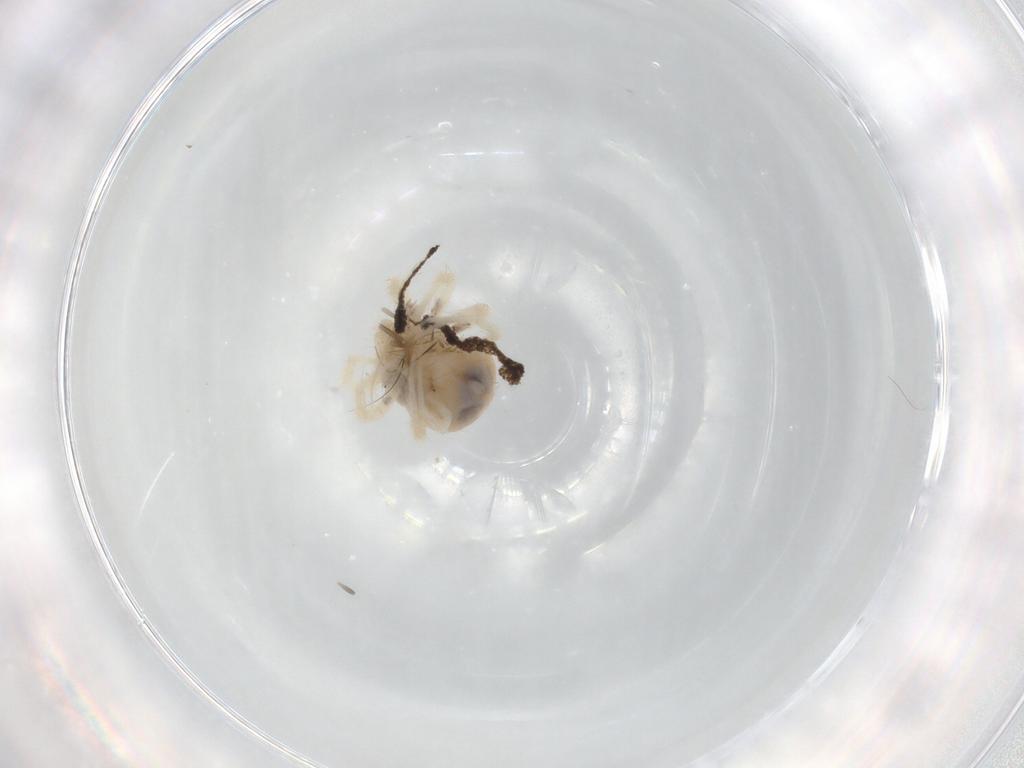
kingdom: Animalia
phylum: Arthropoda
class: Arachnida
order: Trombidiformes
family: Anystidae
